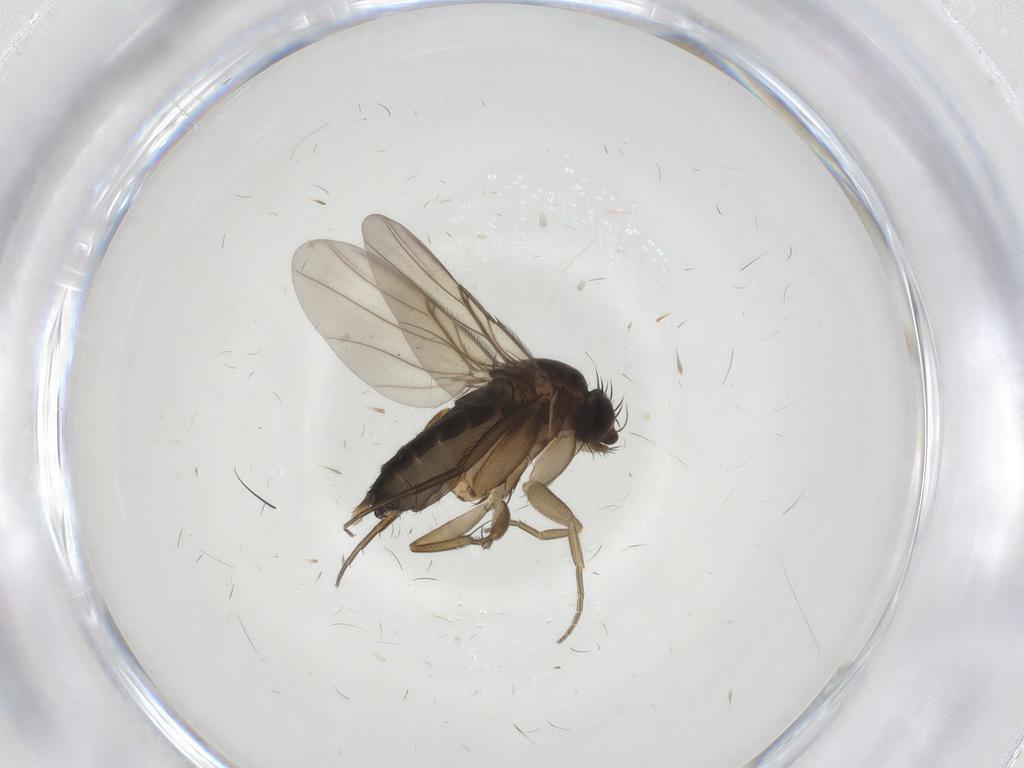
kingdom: Animalia
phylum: Arthropoda
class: Insecta
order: Diptera
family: Phoridae
